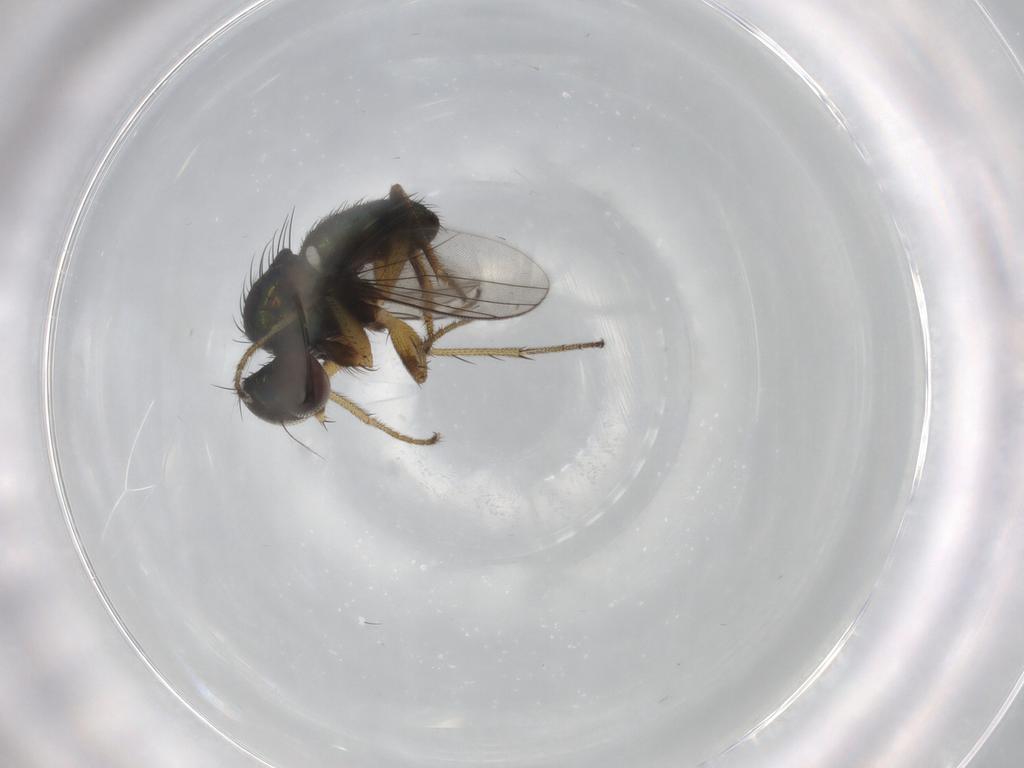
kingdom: Animalia
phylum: Arthropoda
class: Insecta
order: Diptera
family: Dolichopodidae
